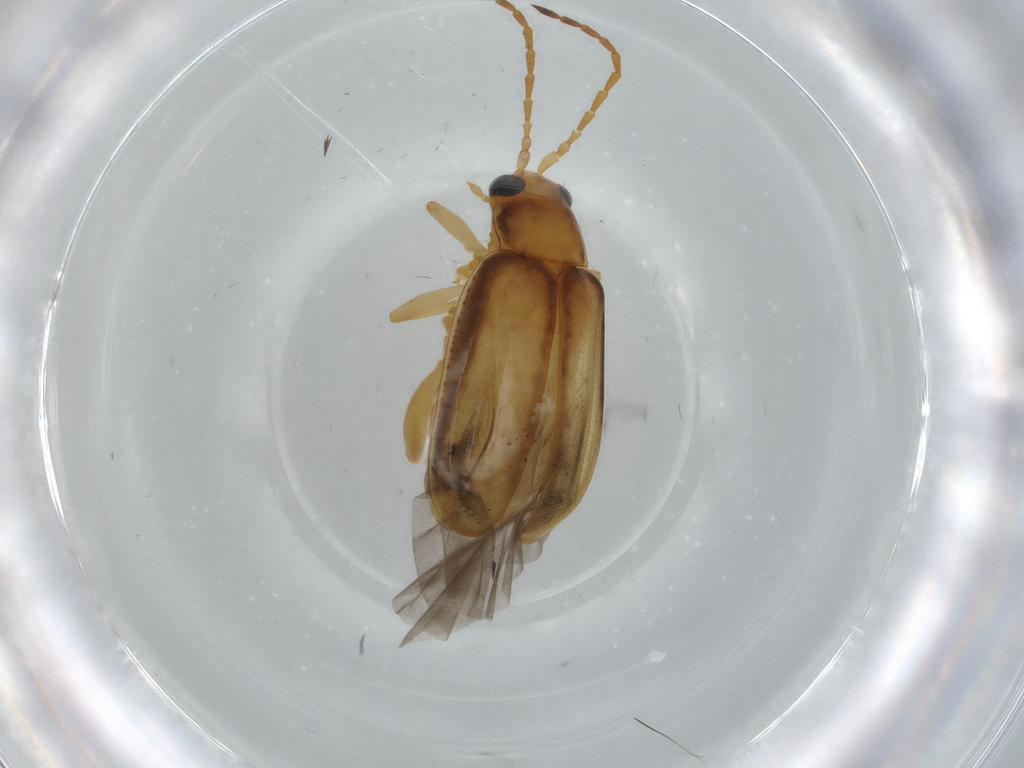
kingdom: Animalia
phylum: Arthropoda
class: Insecta
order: Coleoptera
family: Chrysomelidae
